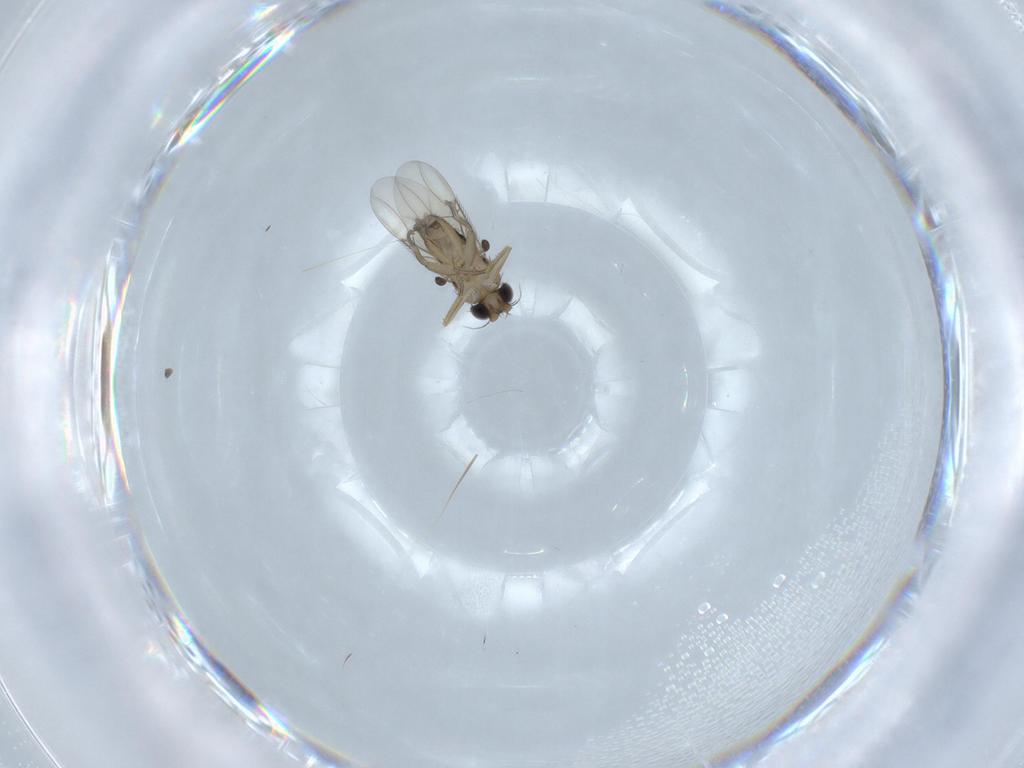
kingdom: Animalia
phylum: Arthropoda
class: Insecta
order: Diptera
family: Phoridae
